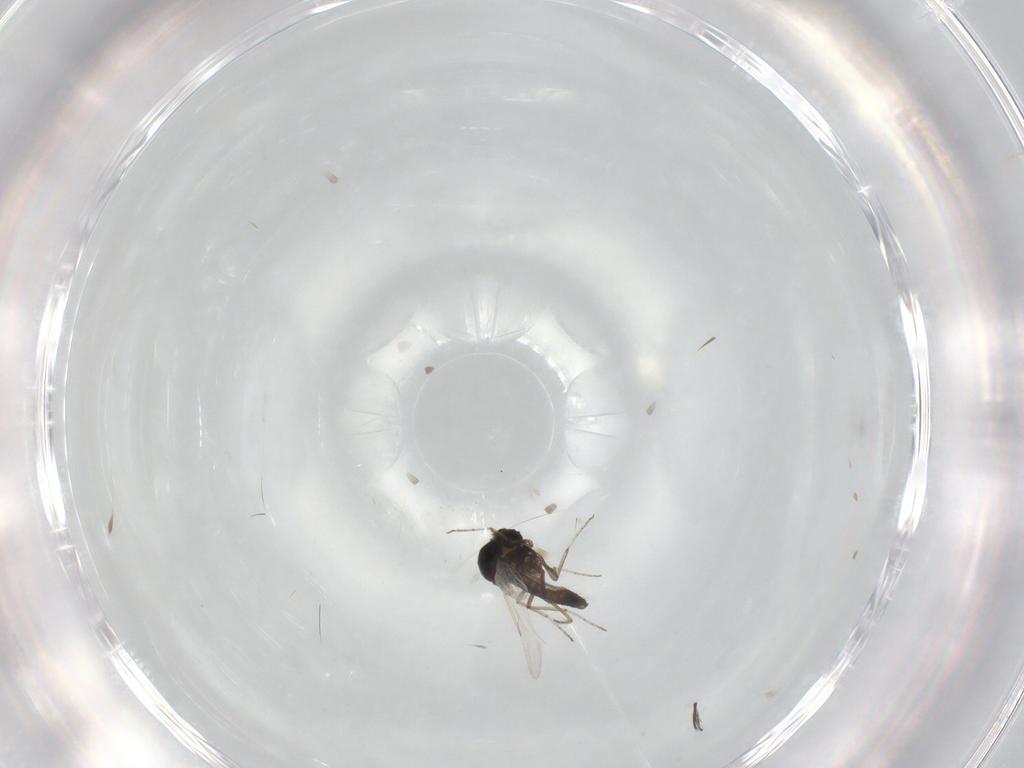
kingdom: Animalia
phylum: Arthropoda
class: Insecta
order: Diptera
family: Ceratopogonidae
